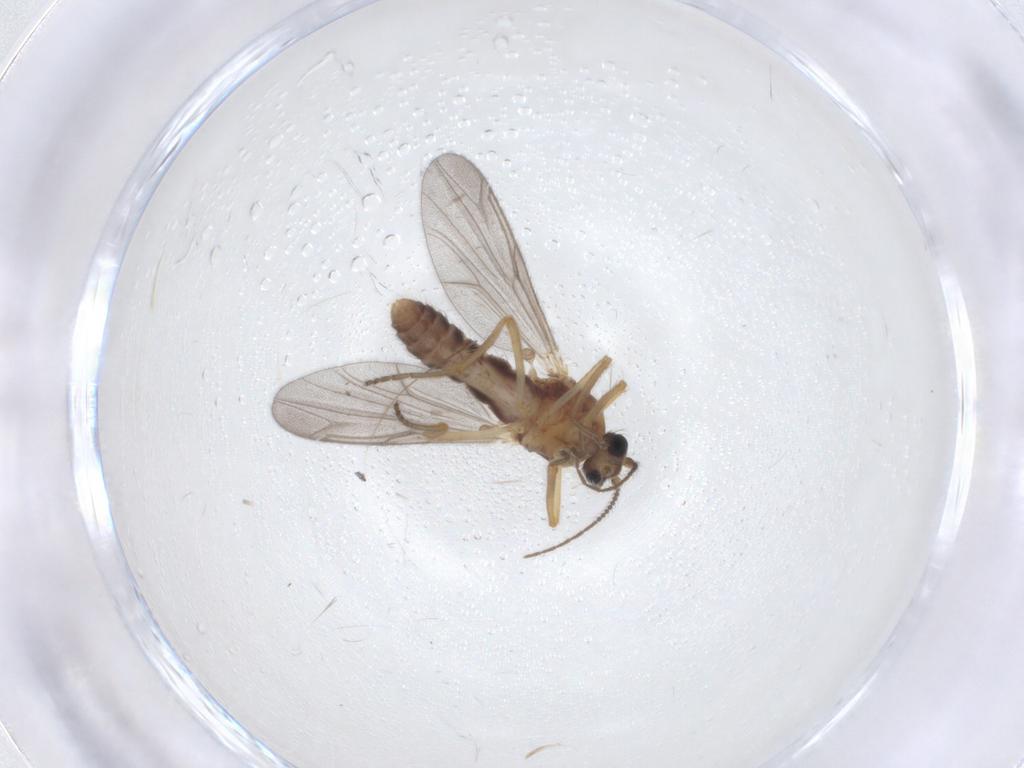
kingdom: Animalia
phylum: Arthropoda
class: Insecta
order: Diptera
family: Ceratopogonidae
